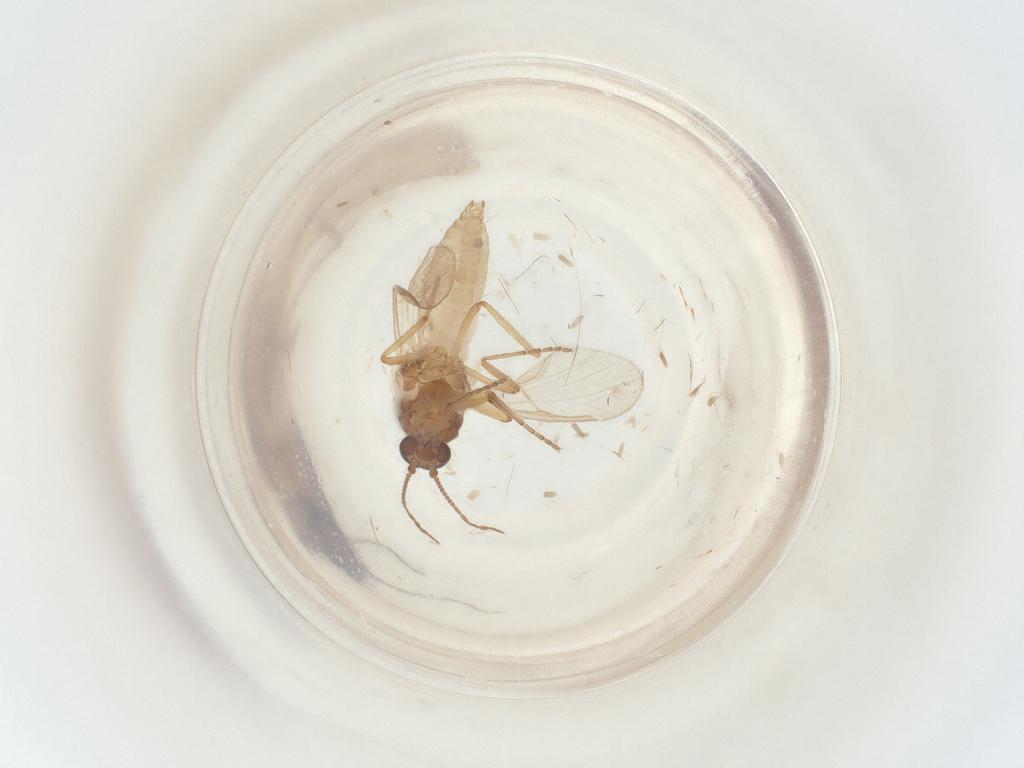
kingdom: Animalia
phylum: Arthropoda
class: Insecta
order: Diptera
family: Ceratopogonidae
